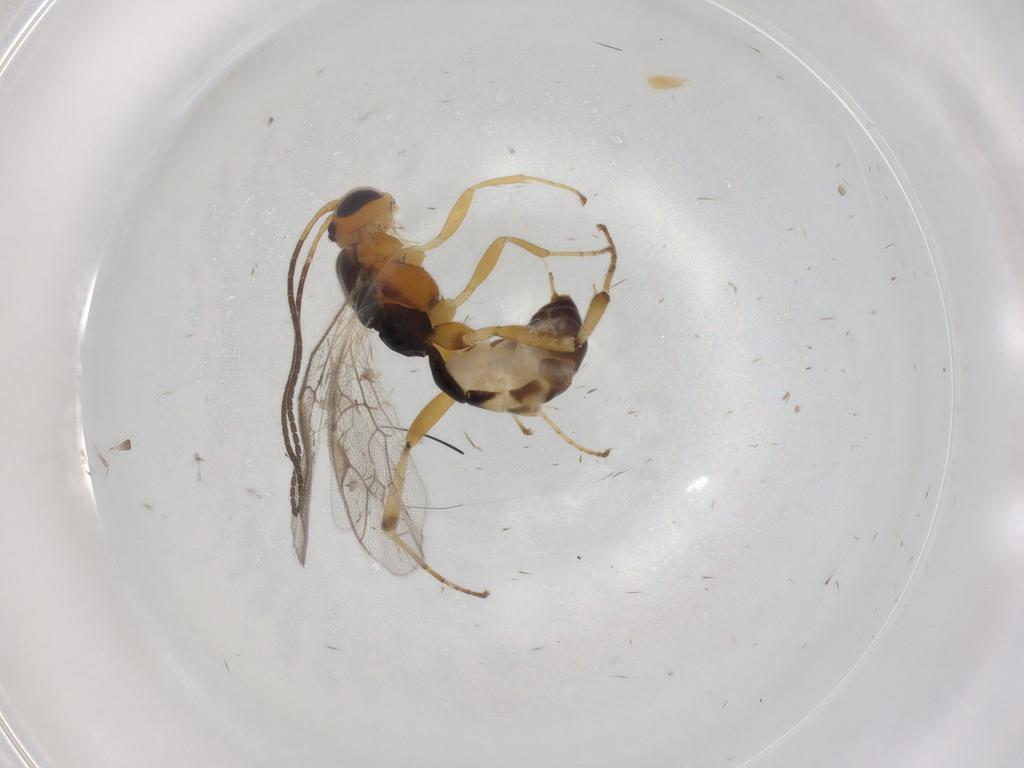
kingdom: Animalia
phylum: Arthropoda
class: Insecta
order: Hymenoptera
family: Ichneumonidae
